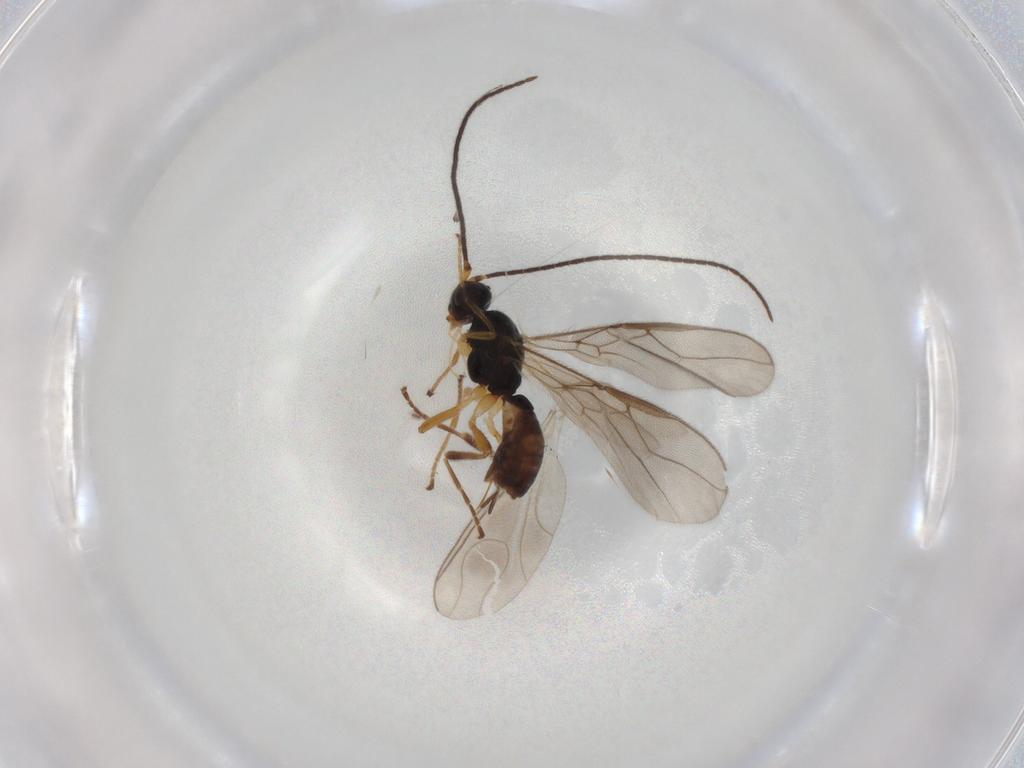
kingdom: Animalia
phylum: Arthropoda
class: Insecta
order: Hymenoptera
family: Braconidae
